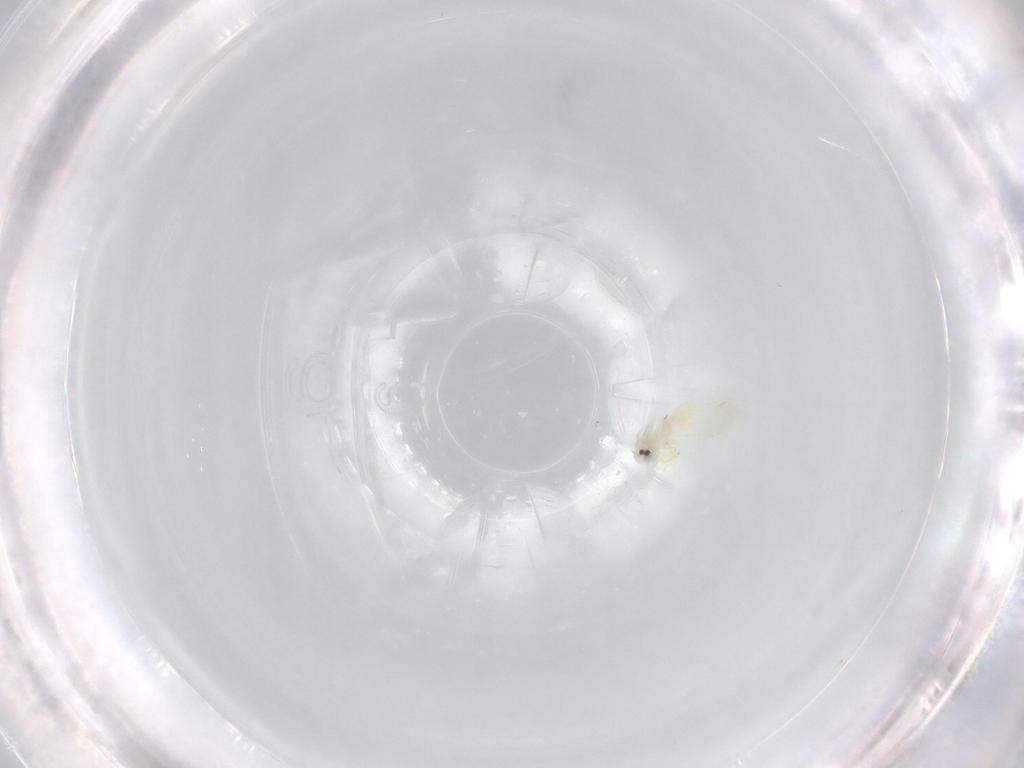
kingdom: Animalia
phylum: Arthropoda
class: Insecta
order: Hemiptera
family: Aleyrodidae
